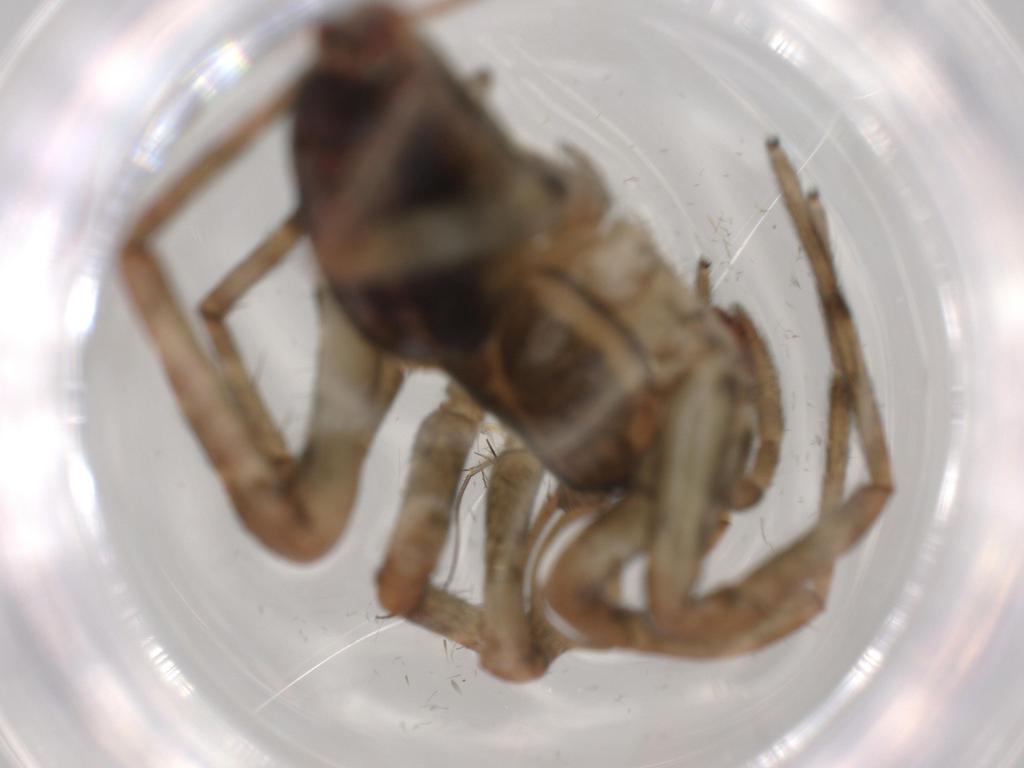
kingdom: Animalia
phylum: Arthropoda
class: Arachnida
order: Araneae
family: Agelenidae
